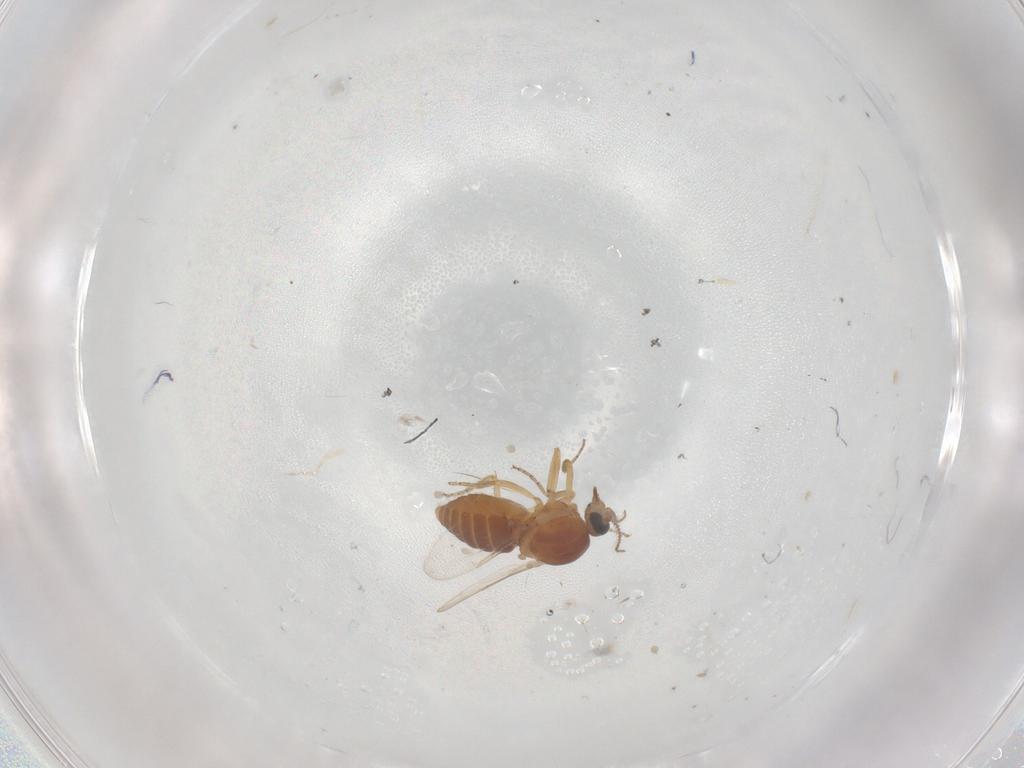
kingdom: Animalia
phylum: Arthropoda
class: Insecta
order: Diptera
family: Ceratopogonidae
